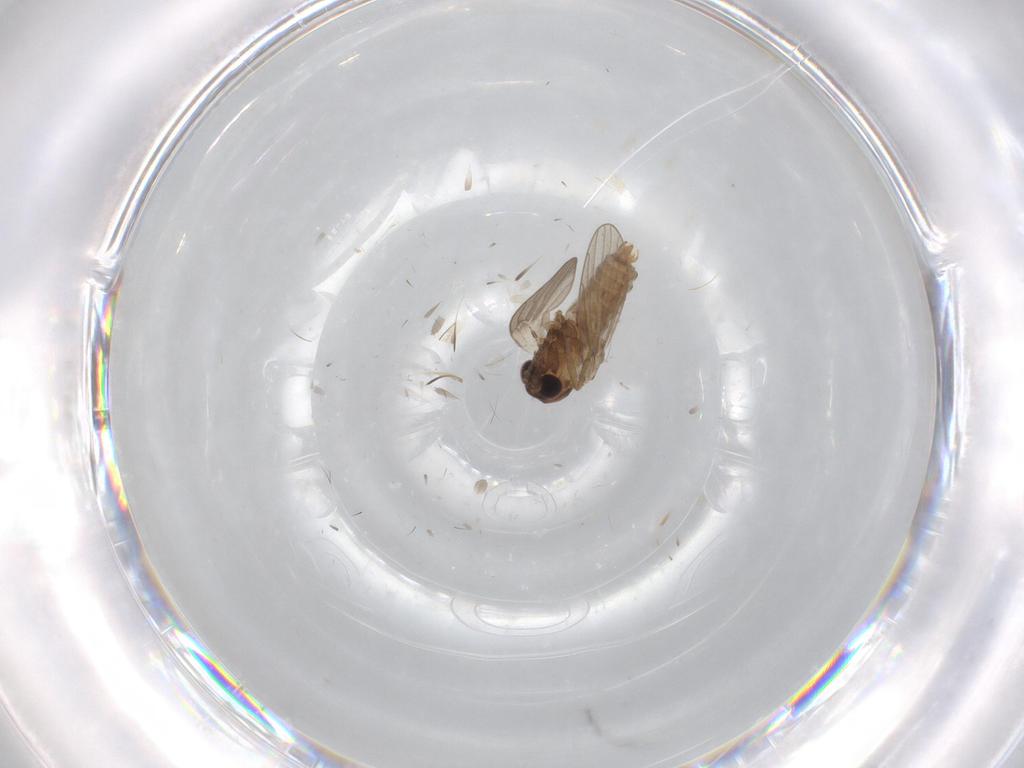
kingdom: Animalia
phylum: Arthropoda
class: Insecta
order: Diptera
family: Psychodidae
